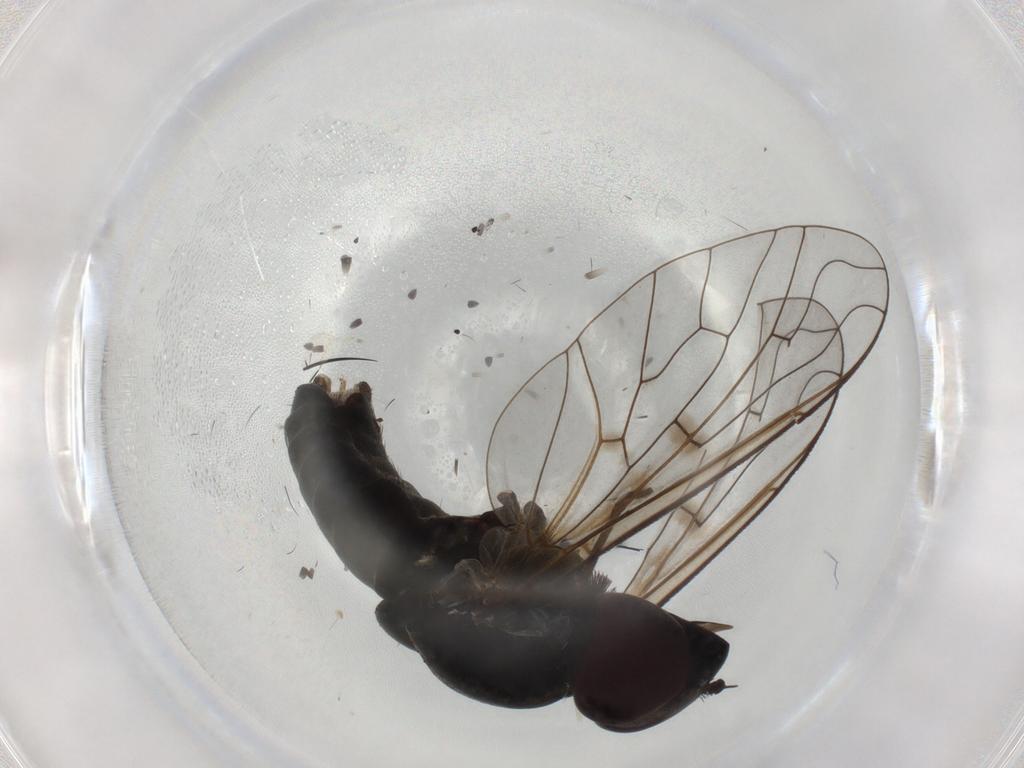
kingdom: Animalia
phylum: Arthropoda
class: Insecta
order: Diptera
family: Bombyliidae
